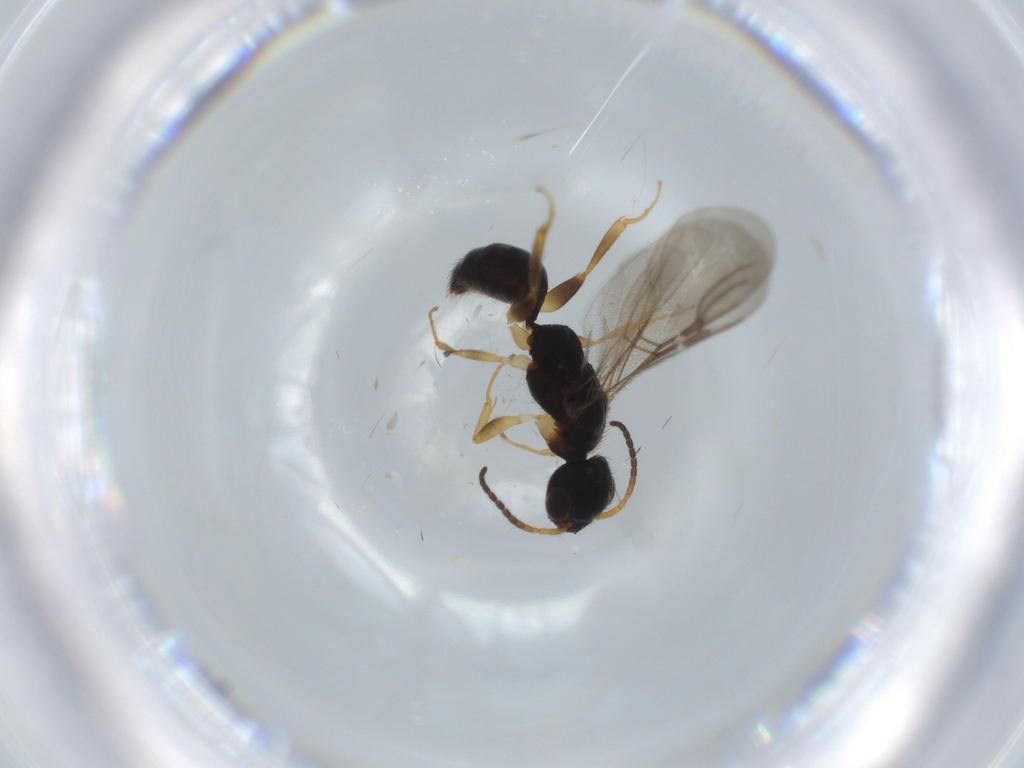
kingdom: Animalia
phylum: Arthropoda
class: Insecta
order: Hymenoptera
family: Bethylidae
